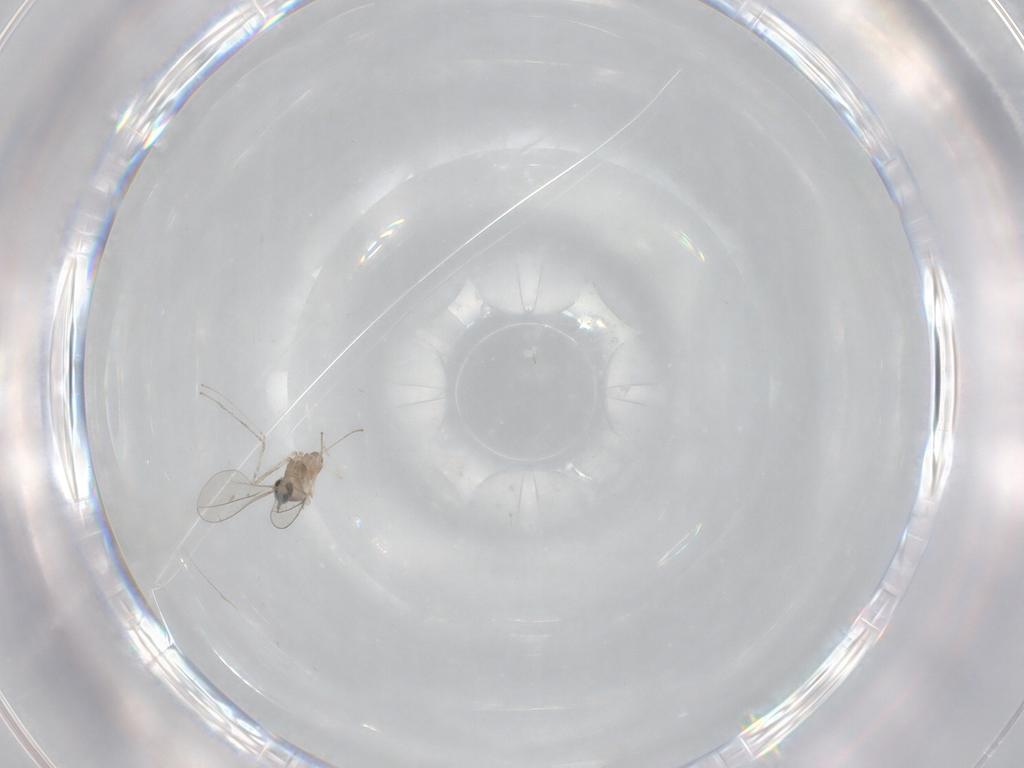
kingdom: Animalia
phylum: Arthropoda
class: Insecta
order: Diptera
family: Cecidomyiidae
